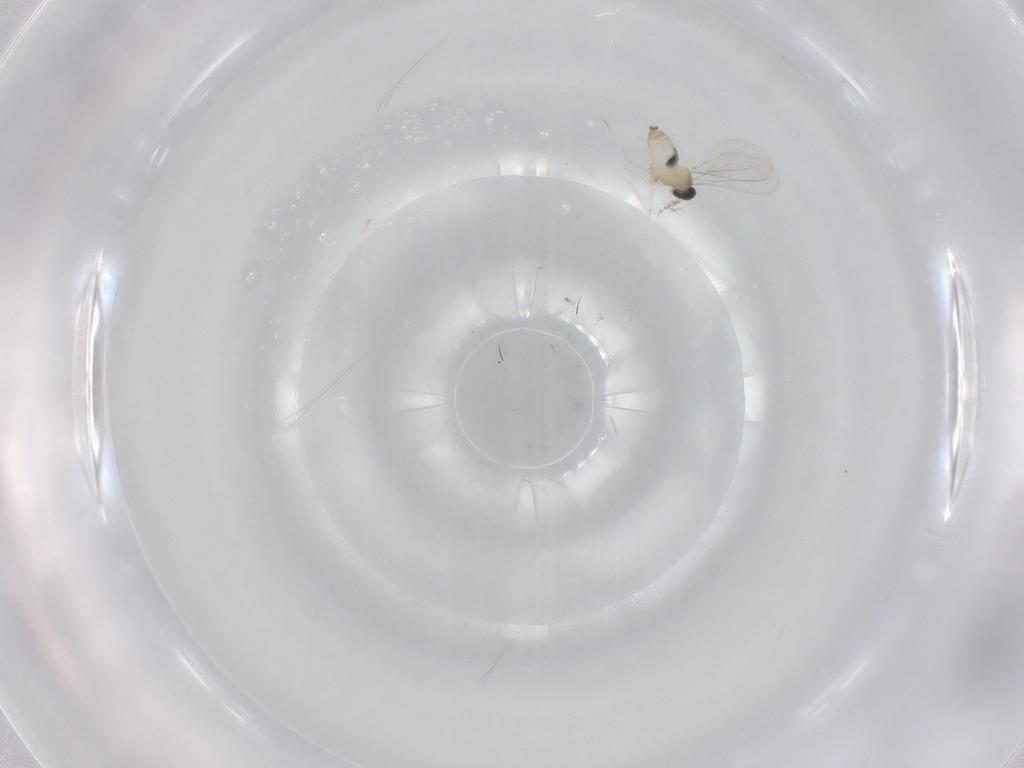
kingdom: Animalia
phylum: Arthropoda
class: Insecta
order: Diptera
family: Cecidomyiidae
